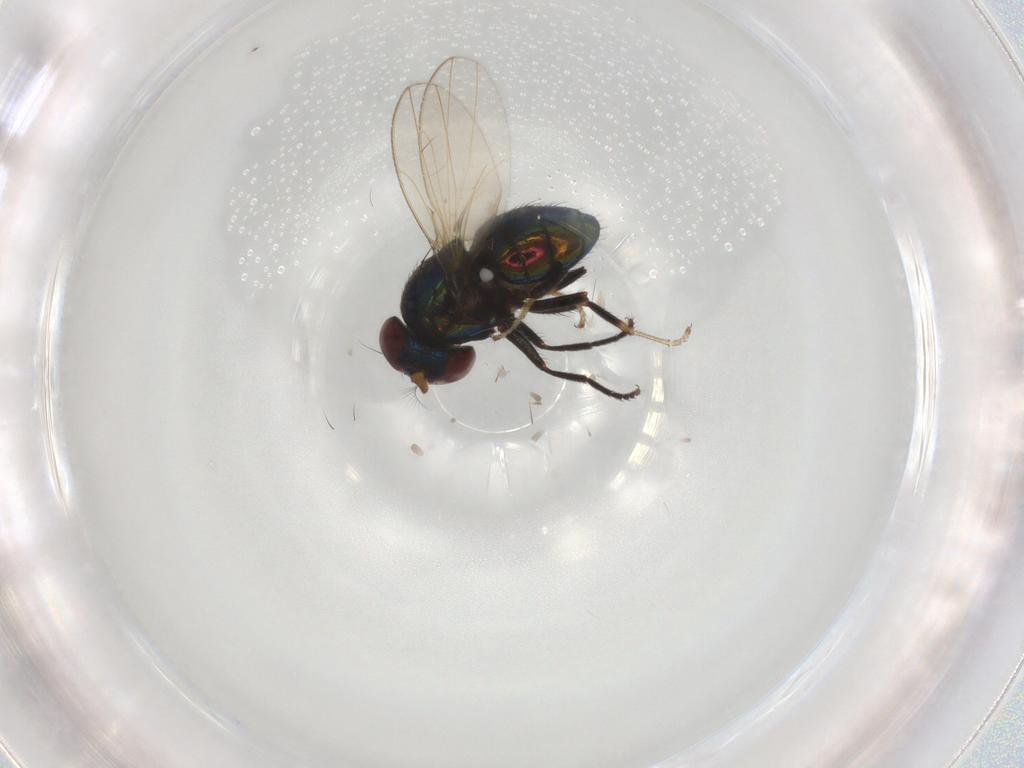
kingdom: Animalia
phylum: Arthropoda
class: Insecta
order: Diptera
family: Ephydridae
